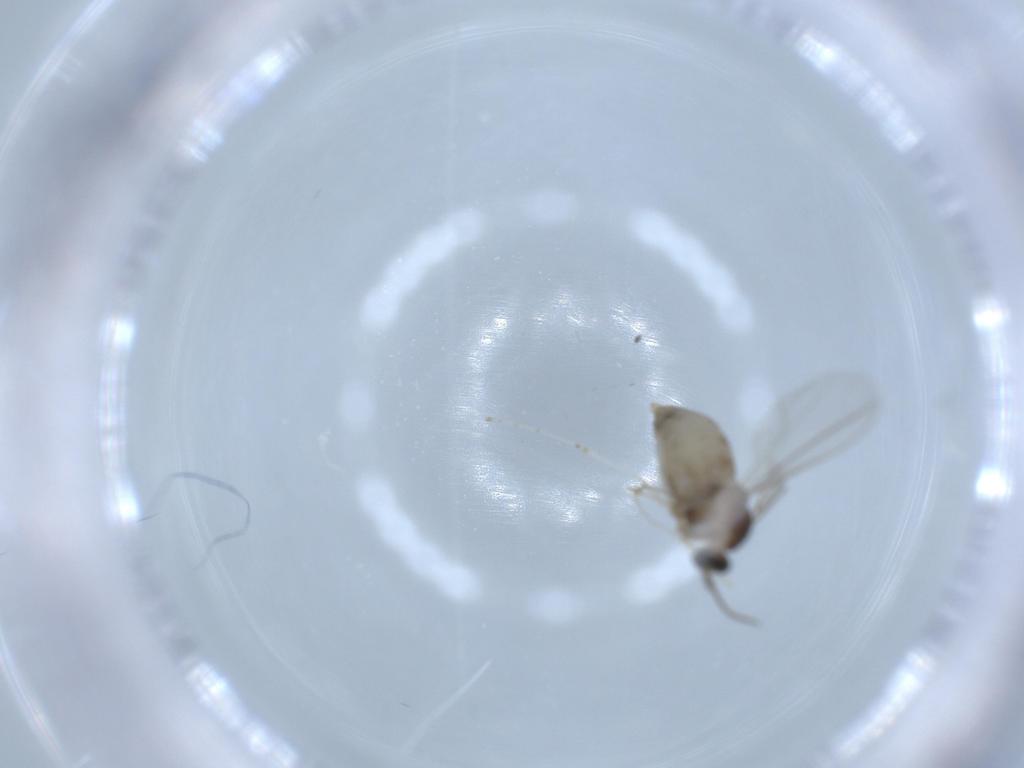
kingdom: Animalia
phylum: Arthropoda
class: Insecta
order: Diptera
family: Cecidomyiidae
